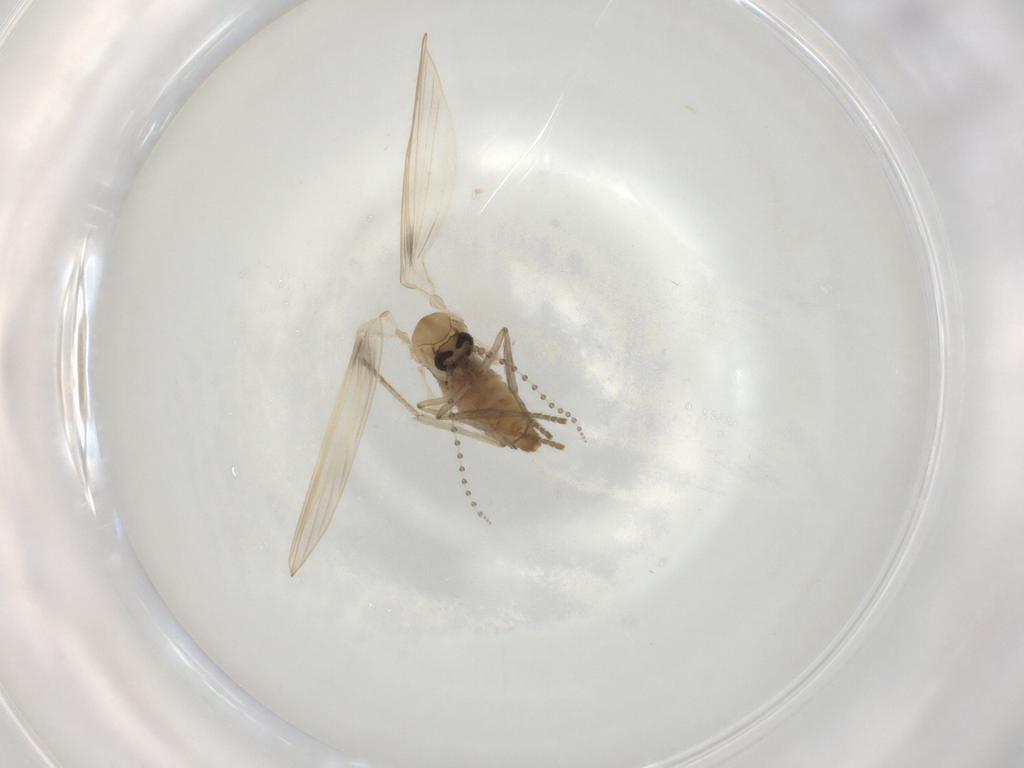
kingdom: Animalia
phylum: Arthropoda
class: Insecta
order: Diptera
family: Psychodidae
